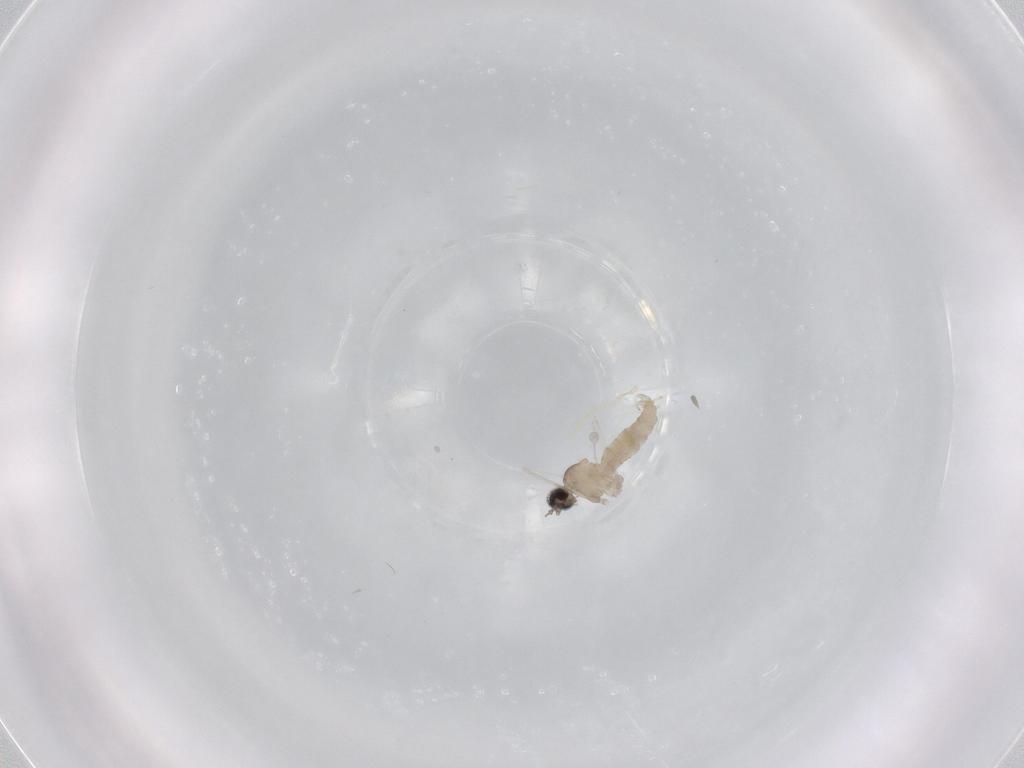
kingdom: Animalia
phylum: Arthropoda
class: Insecta
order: Diptera
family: Cecidomyiidae
